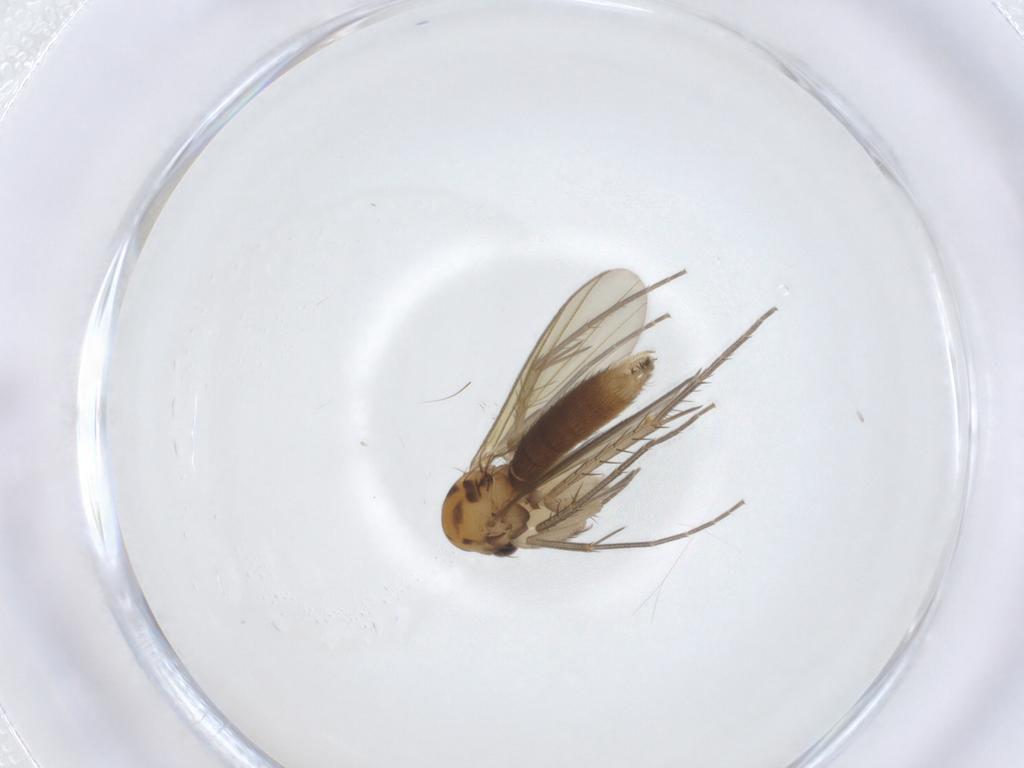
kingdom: Animalia
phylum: Arthropoda
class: Insecta
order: Diptera
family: Mycetophilidae
